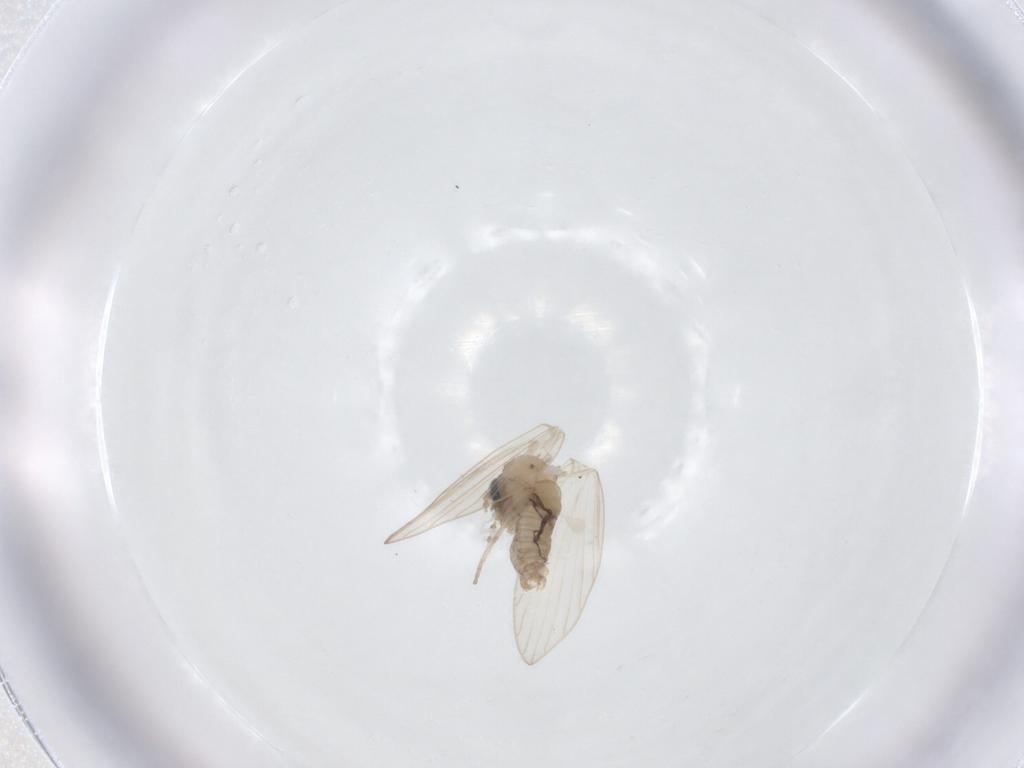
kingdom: Animalia
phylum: Arthropoda
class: Insecta
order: Diptera
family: Psychodidae
